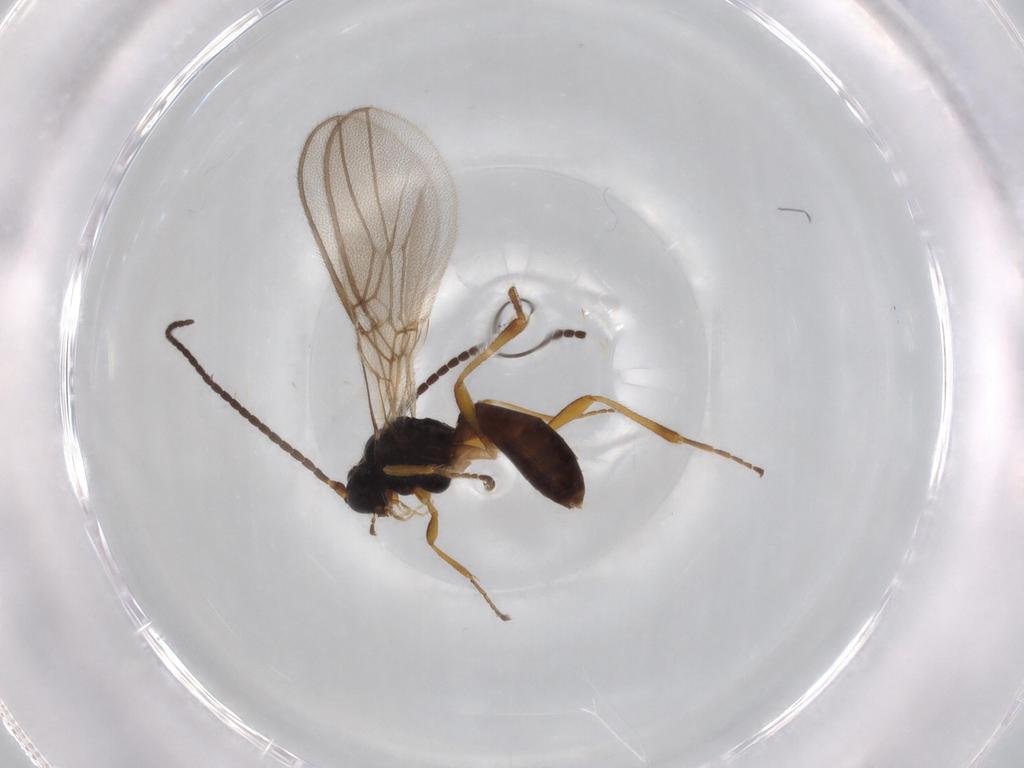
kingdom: Animalia
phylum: Arthropoda
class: Insecta
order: Hymenoptera
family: Braconidae
